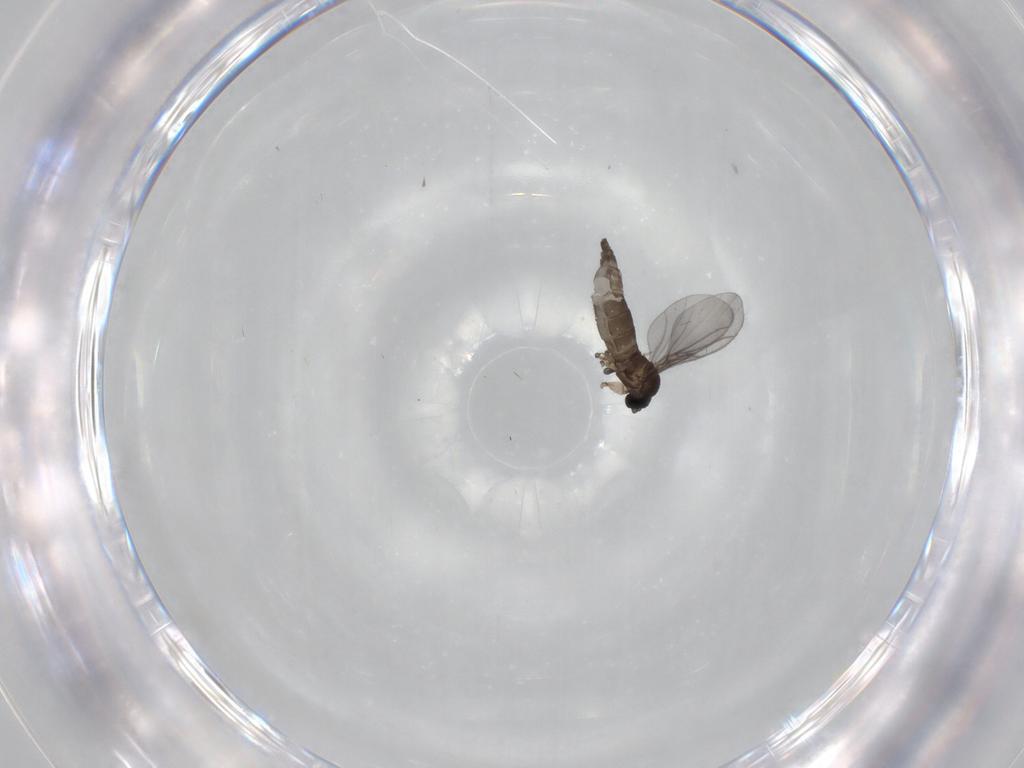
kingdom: Animalia
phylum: Arthropoda
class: Insecta
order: Diptera
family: Sciaridae
